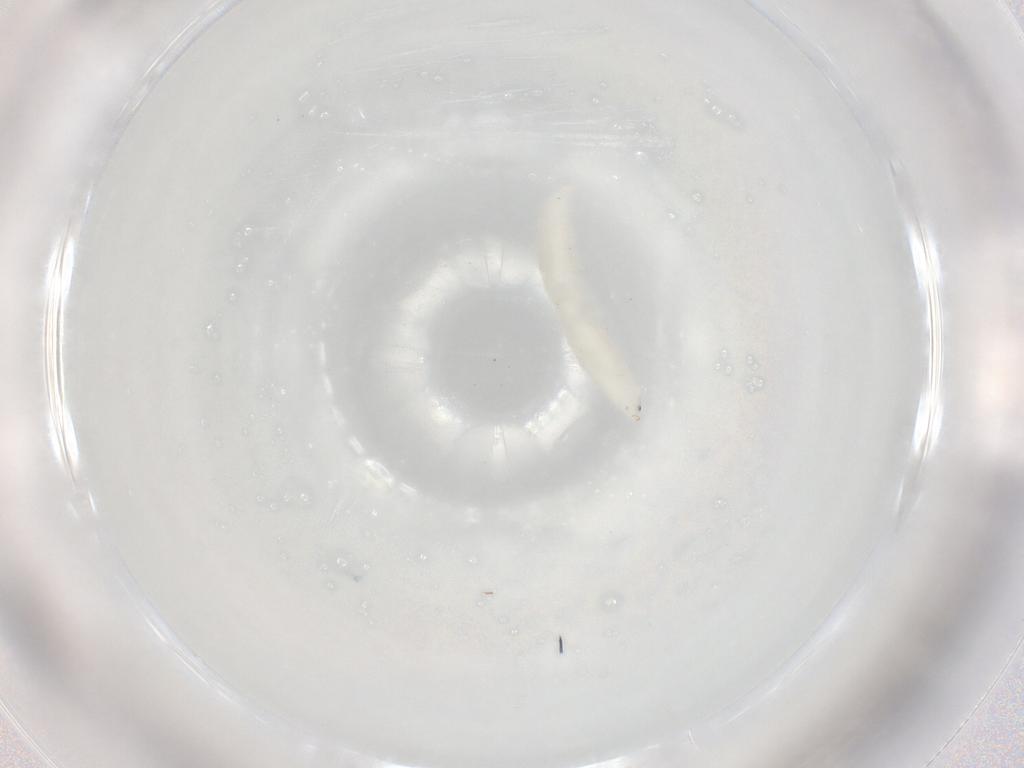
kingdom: Animalia
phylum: Arthropoda
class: Insecta
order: Diptera
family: Cecidomyiidae
